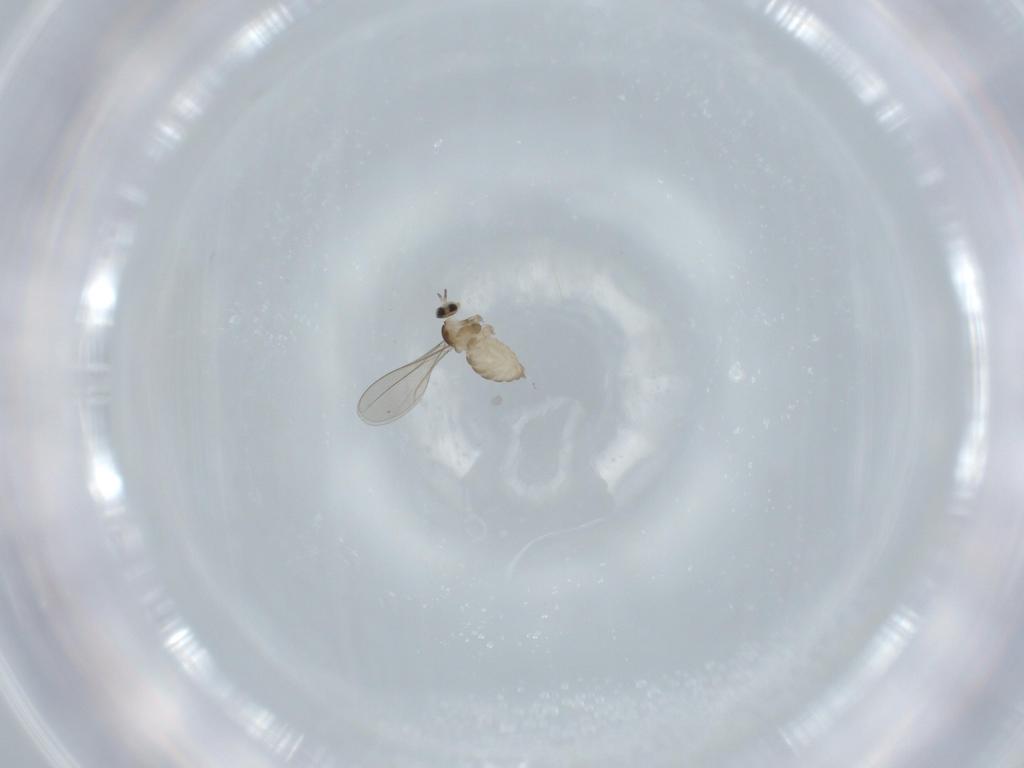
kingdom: Animalia
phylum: Arthropoda
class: Insecta
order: Diptera
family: Cecidomyiidae
